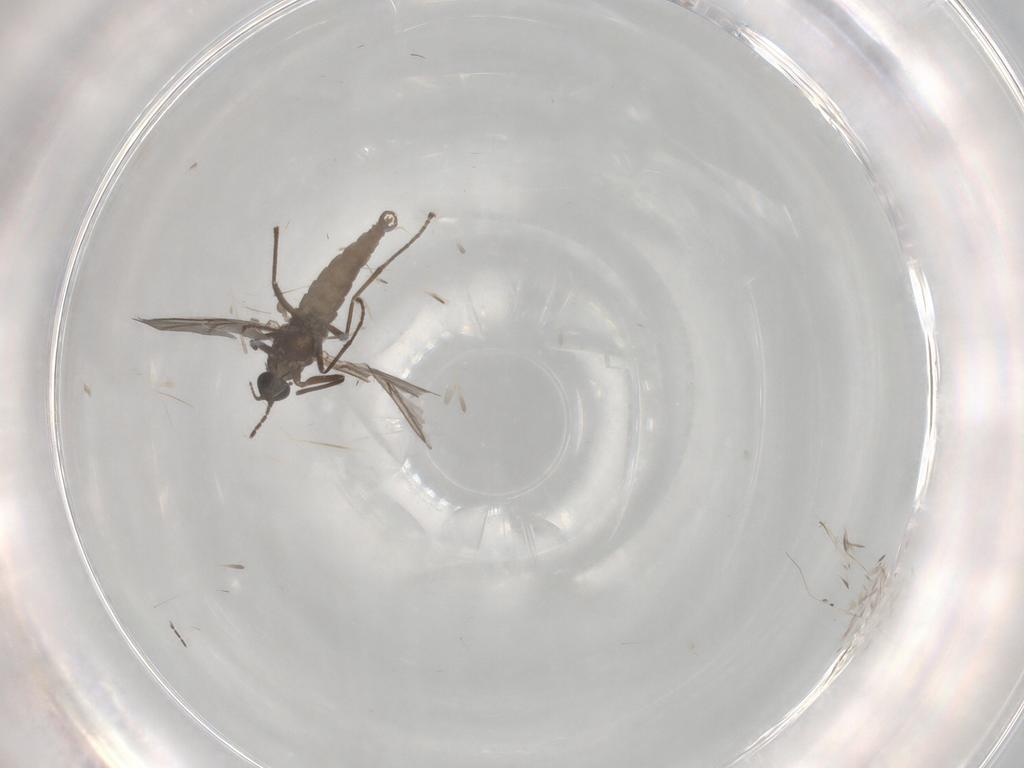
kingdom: Animalia
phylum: Arthropoda
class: Insecta
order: Diptera
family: Sciaridae
